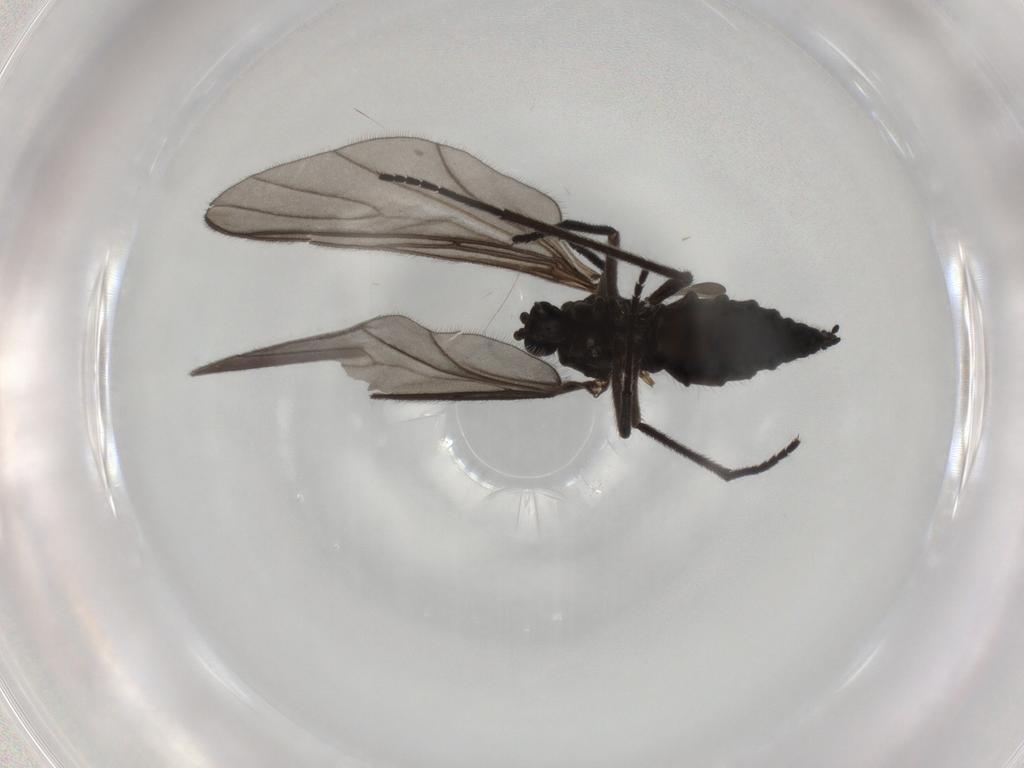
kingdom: Animalia
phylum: Arthropoda
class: Insecta
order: Diptera
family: Sciaridae
